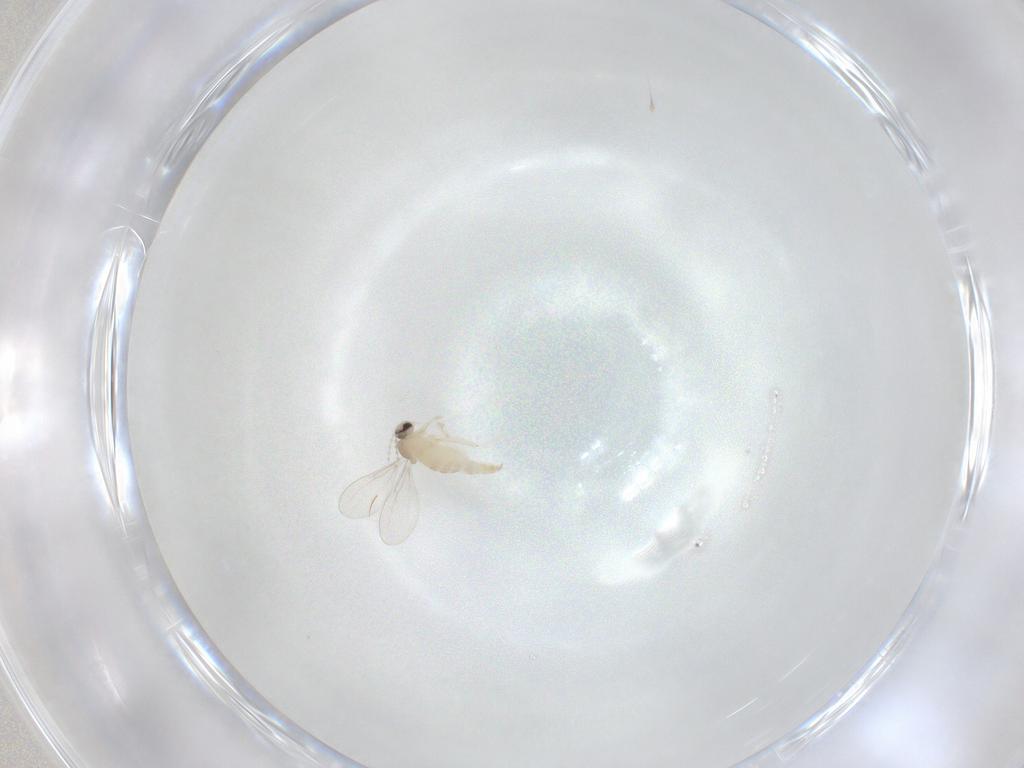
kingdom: Animalia
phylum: Arthropoda
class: Insecta
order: Diptera
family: Cecidomyiidae
